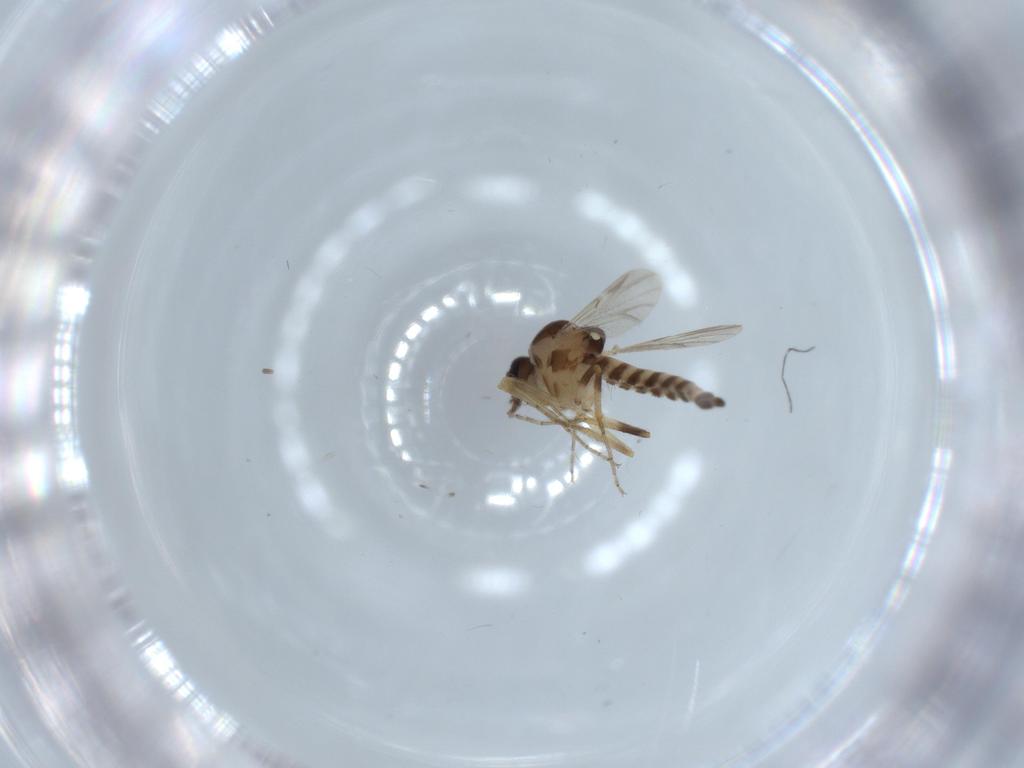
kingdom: Animalia
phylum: Arthropoda
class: Insecta
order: Diptera
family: Ceratopogonidae
